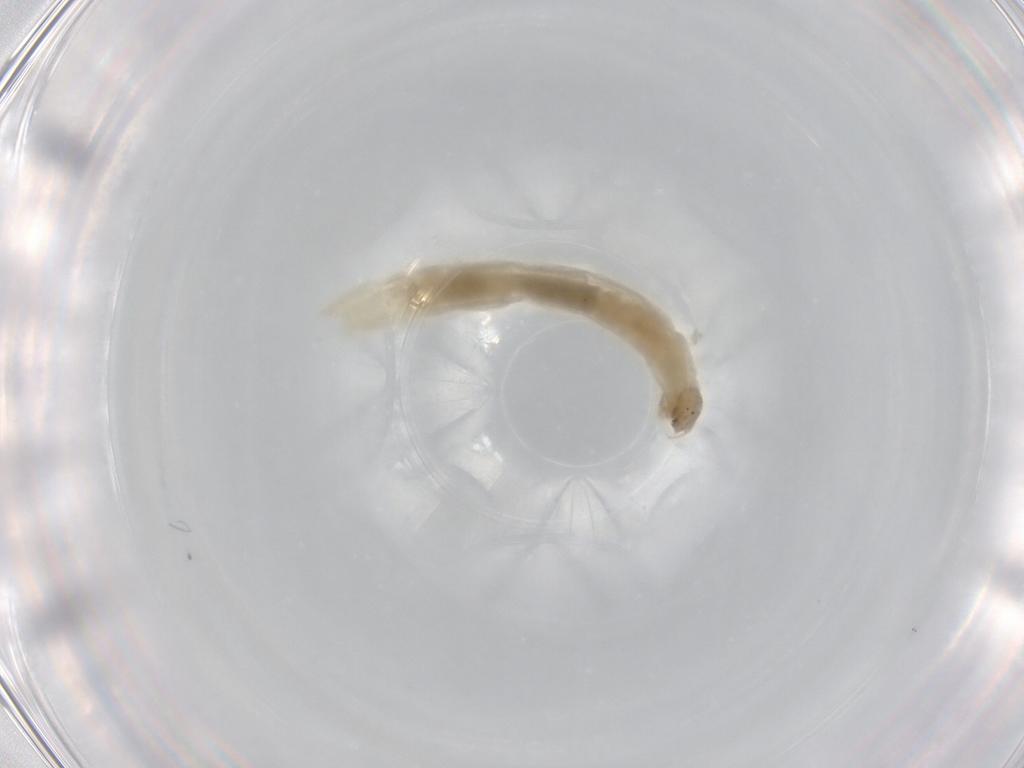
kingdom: Animalia
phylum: Arthropoda
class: Insecta
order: Diptera
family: Chironomidae
